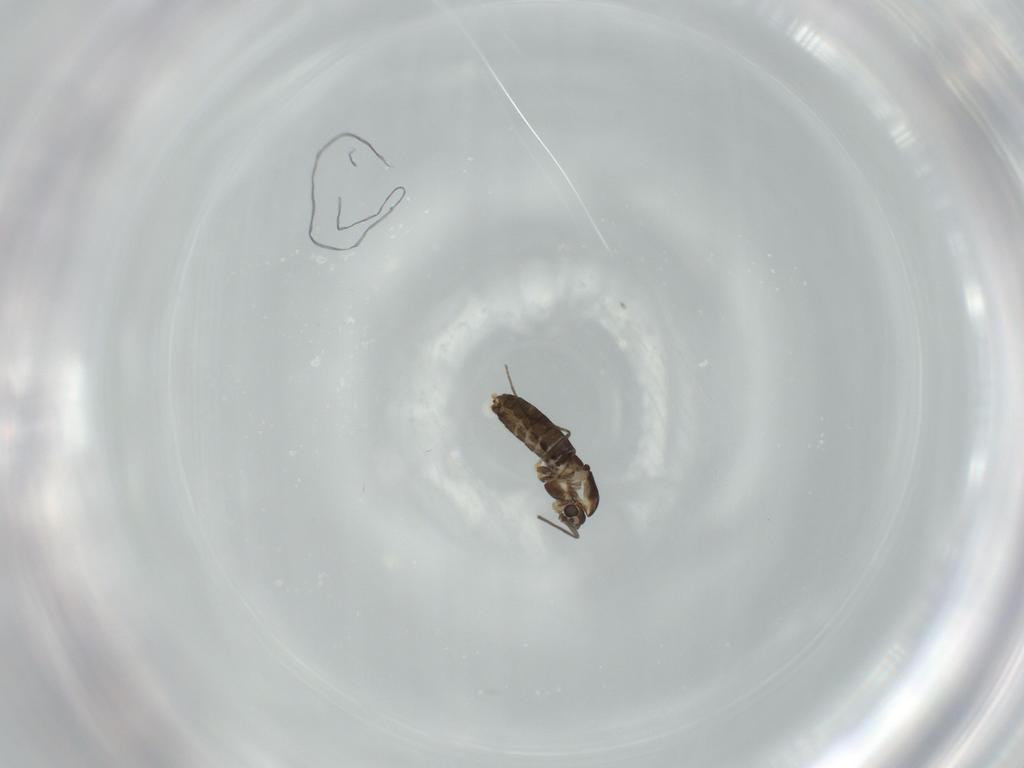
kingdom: Animalia
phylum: Arthropoda
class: Insecta
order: Diptera
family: Chironomidae
